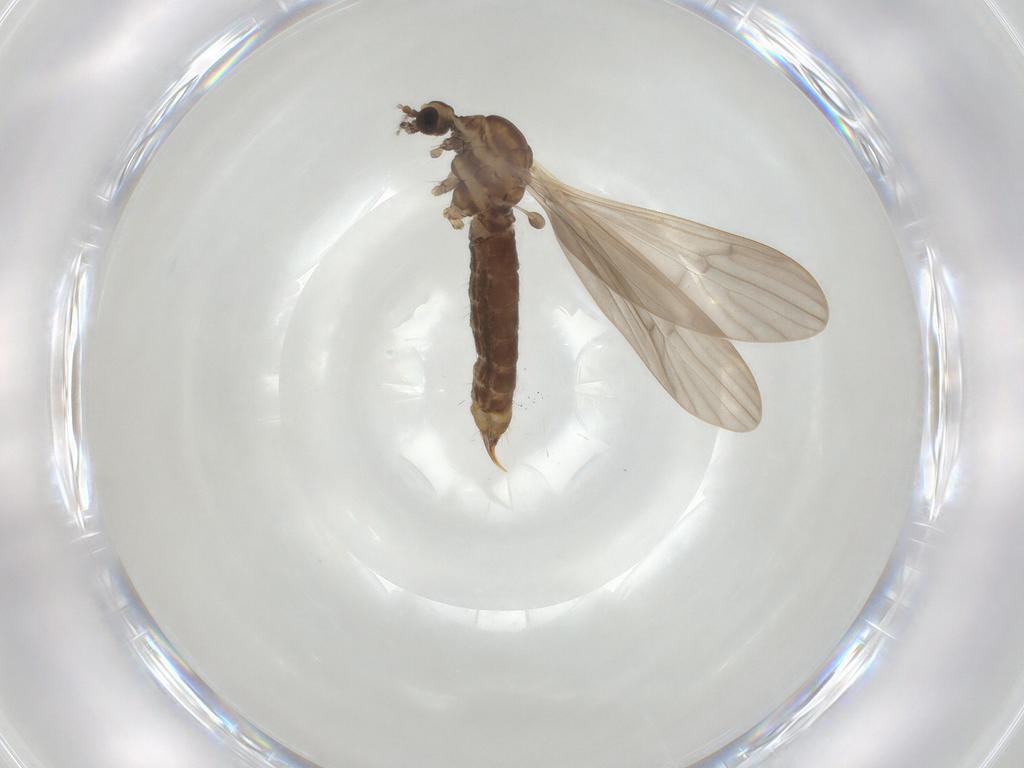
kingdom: Animalia
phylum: Arthropoda
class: Insecta
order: Diptera
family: Limoniidae
